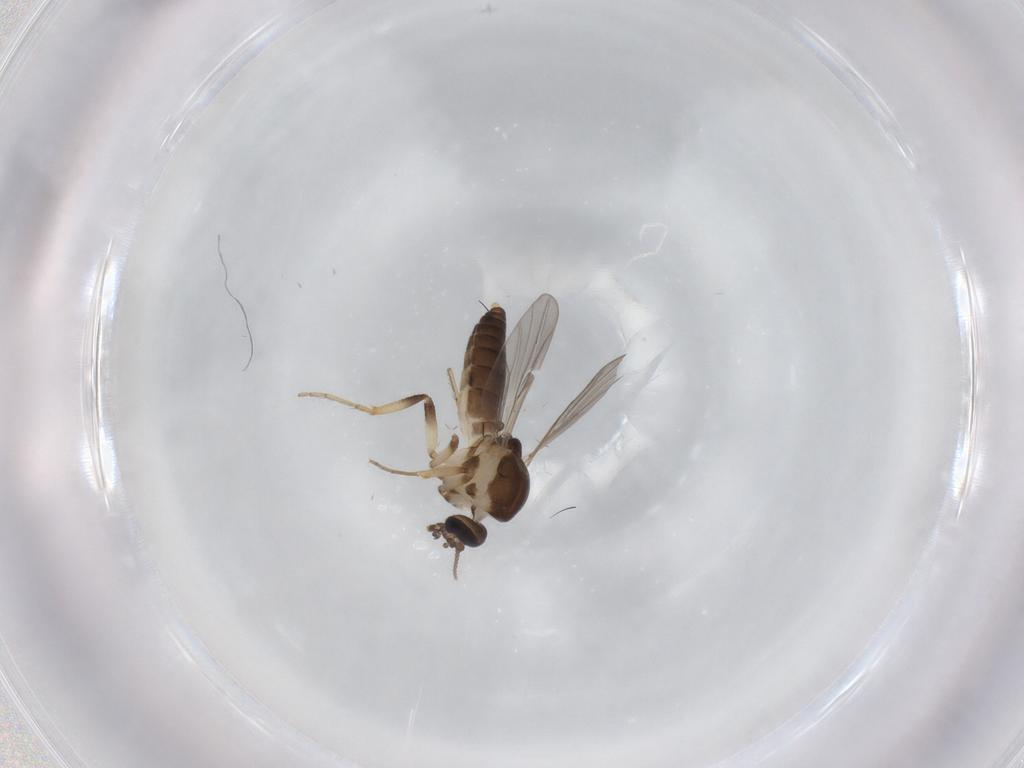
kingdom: Animalia
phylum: Arthropoda
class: Insecta
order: Diptera
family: Ceratopogonidae
